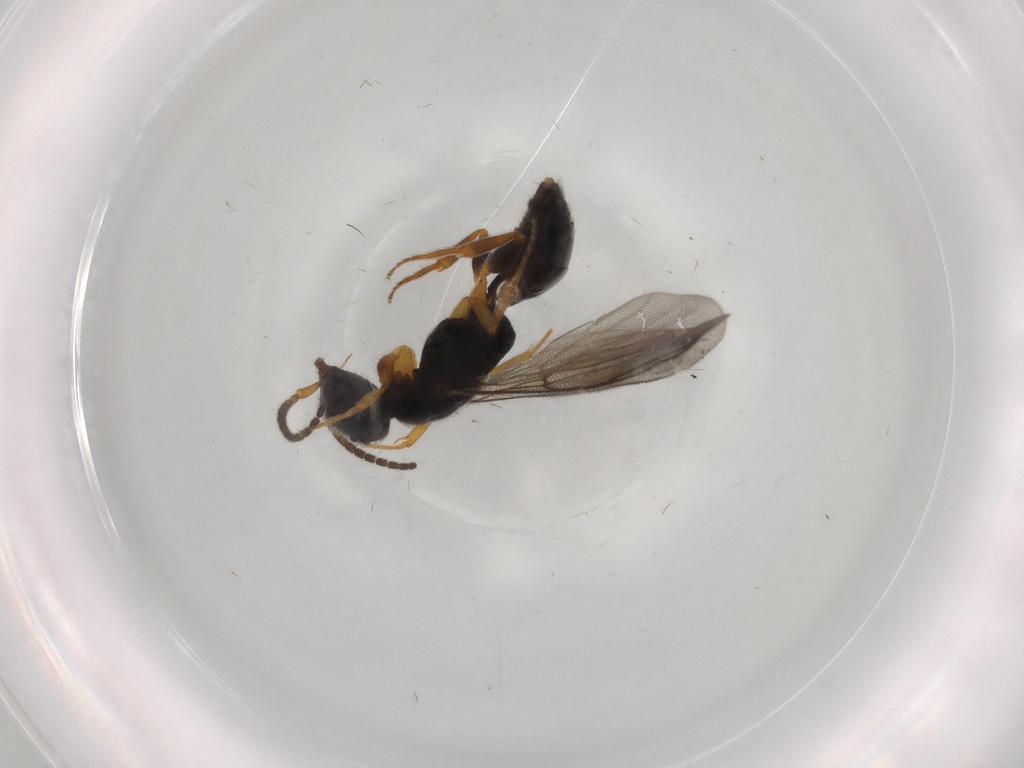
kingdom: Animalia
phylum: Arthropoda
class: Insecta
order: Hymenoptera
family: Bethylidae
